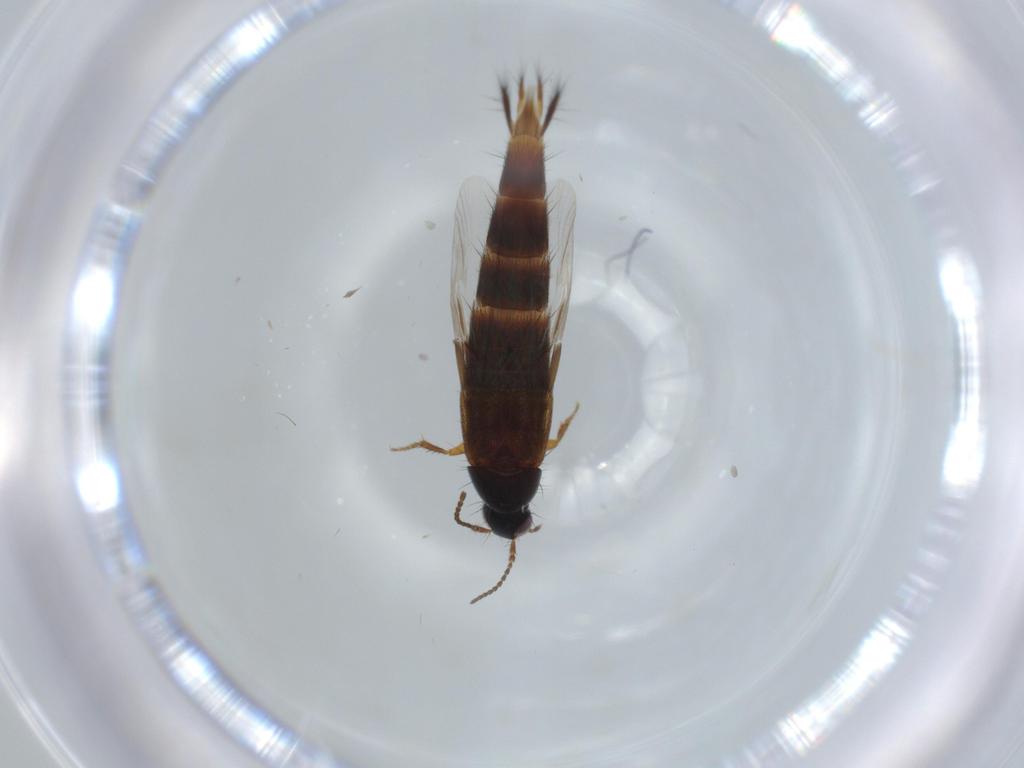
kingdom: Animalia
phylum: Arthropoda
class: Insecta
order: Coleoptera
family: Staphylinidae
